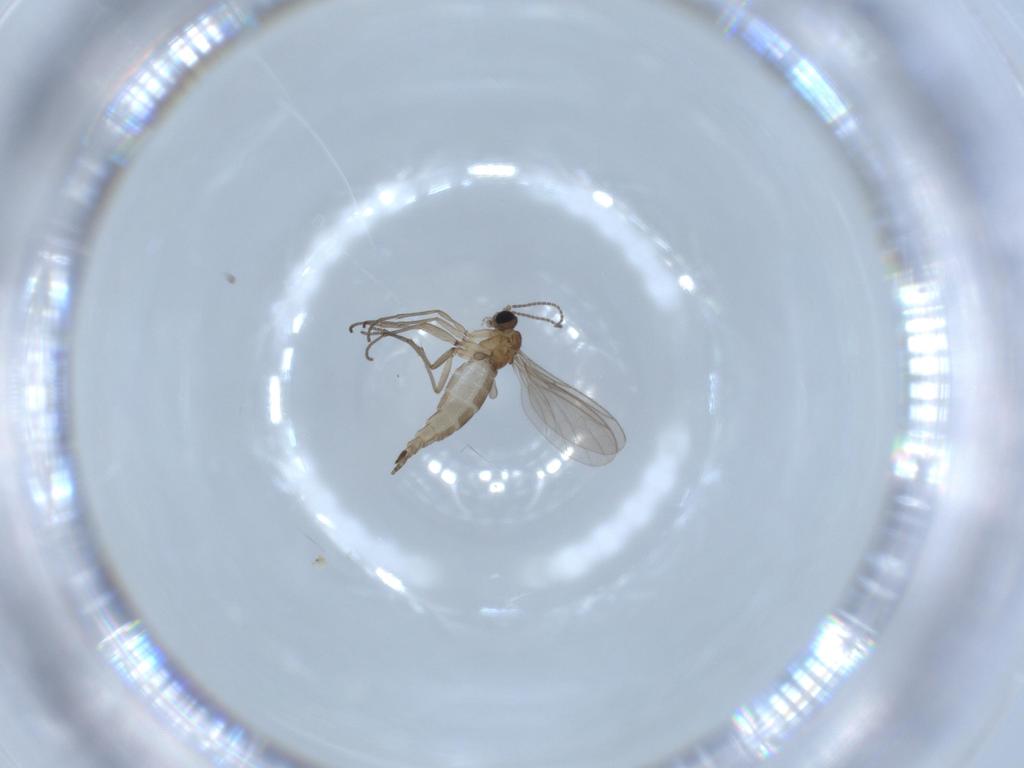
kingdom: Animalia
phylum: Arthropoda
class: Insecta
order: Diptera
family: Sciaridae
